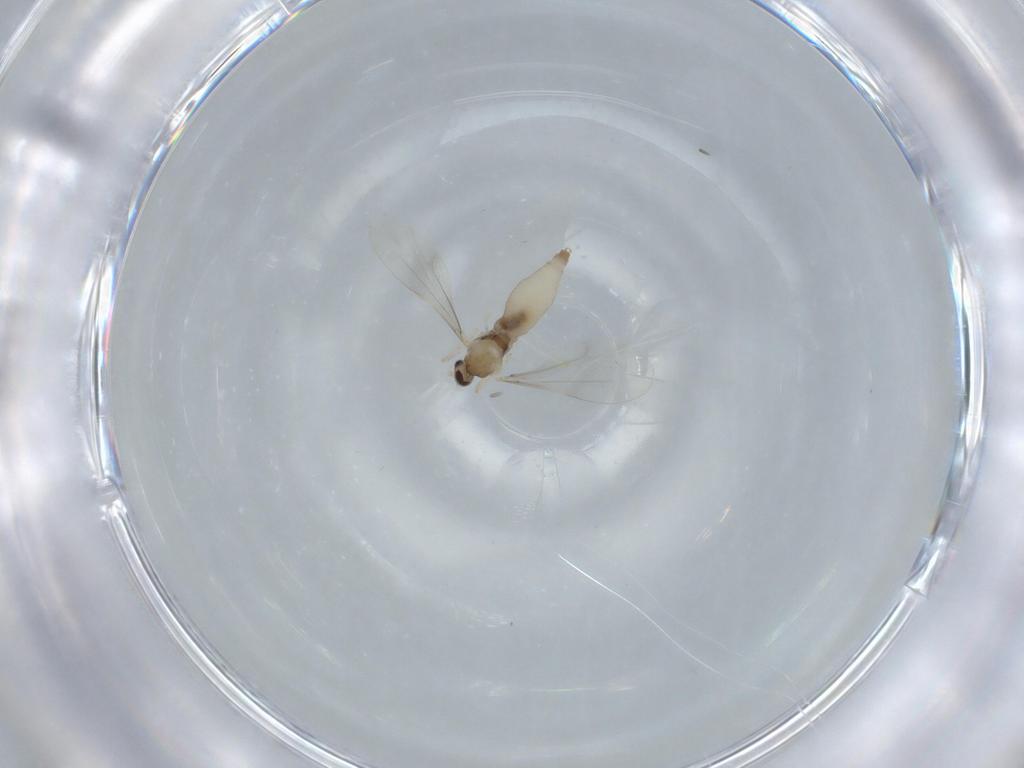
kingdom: Animalia
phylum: Arthropoda
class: Insecta
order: Diptera
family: Cecidomyiidae
